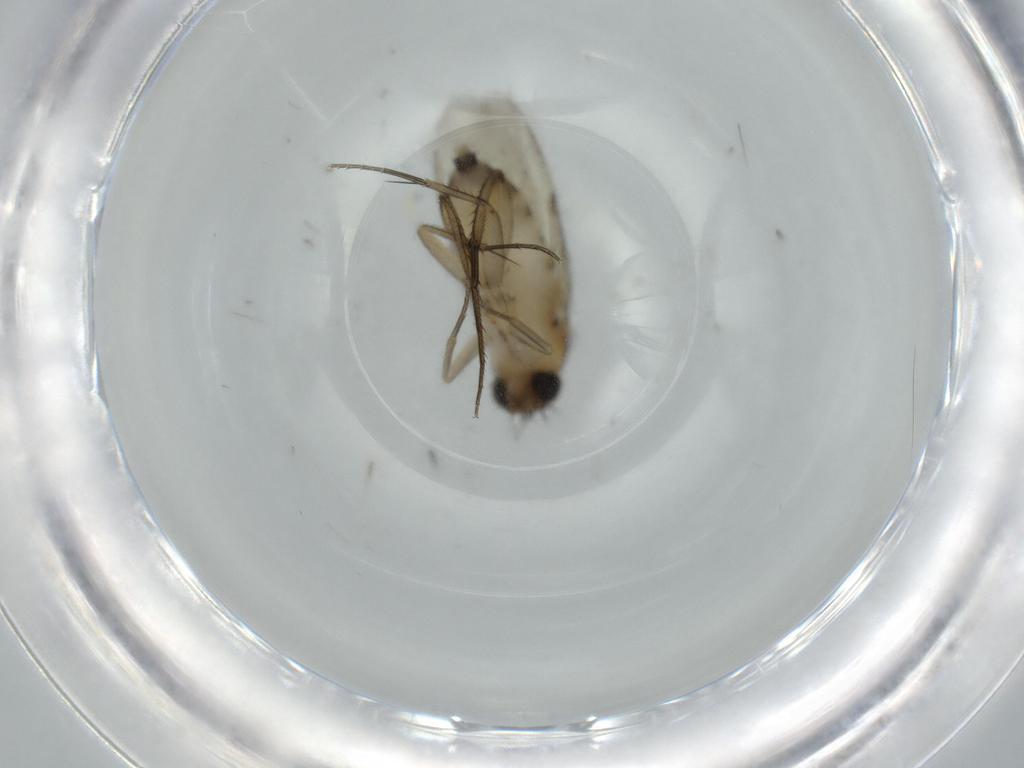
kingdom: Animalia
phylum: Arthropoda
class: Insecta
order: Diptera
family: Phoridae
